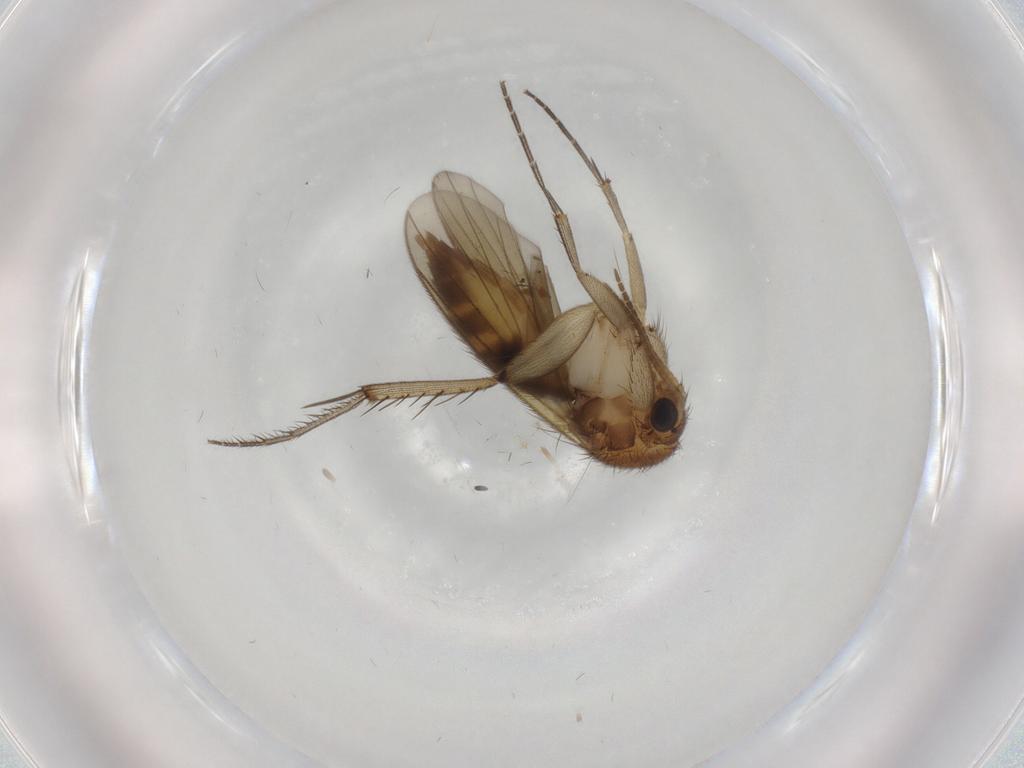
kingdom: Animalia
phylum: Arthropoda
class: Insecta
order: Diptera
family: Mycetophilidae
